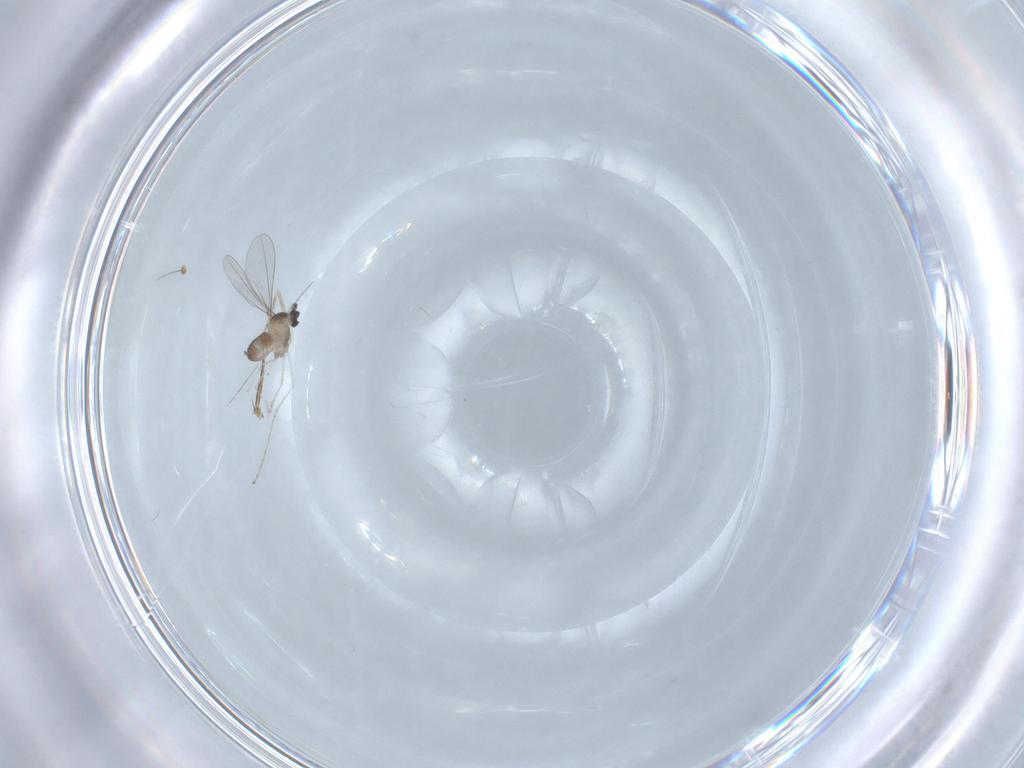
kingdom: Animalia
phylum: Arthropoda
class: Insecta
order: Diptera
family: Cecidomyiidae
